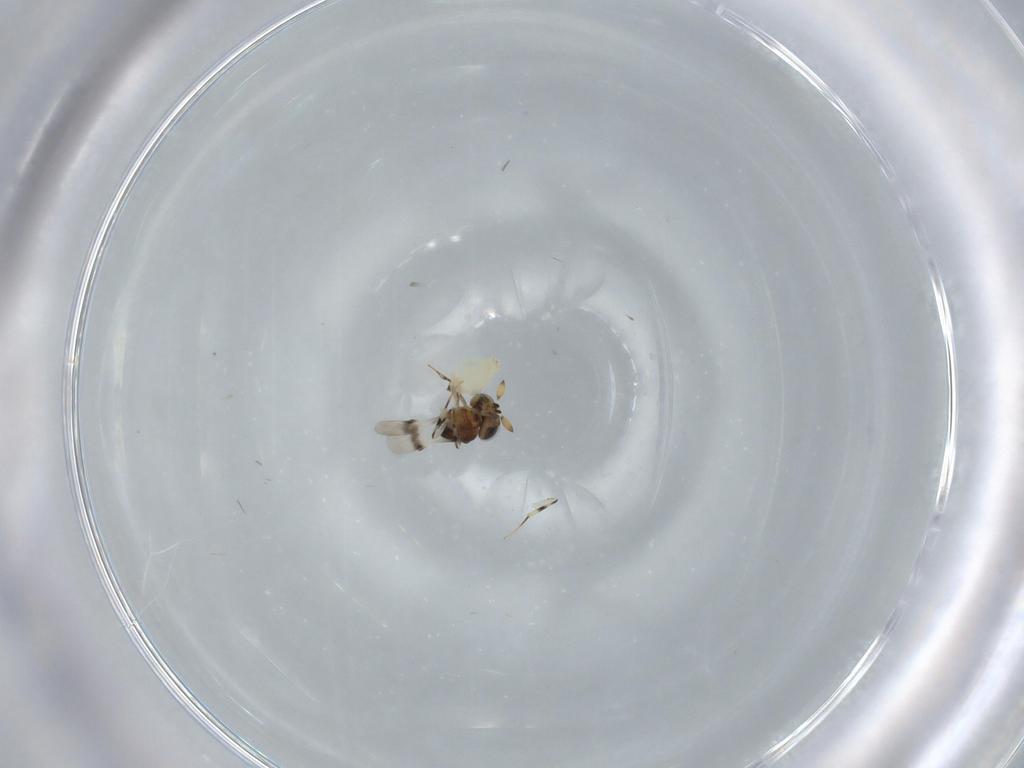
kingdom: Animalia
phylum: Arthropoda
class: Insecta
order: Hymenoptera
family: Scelionidae
